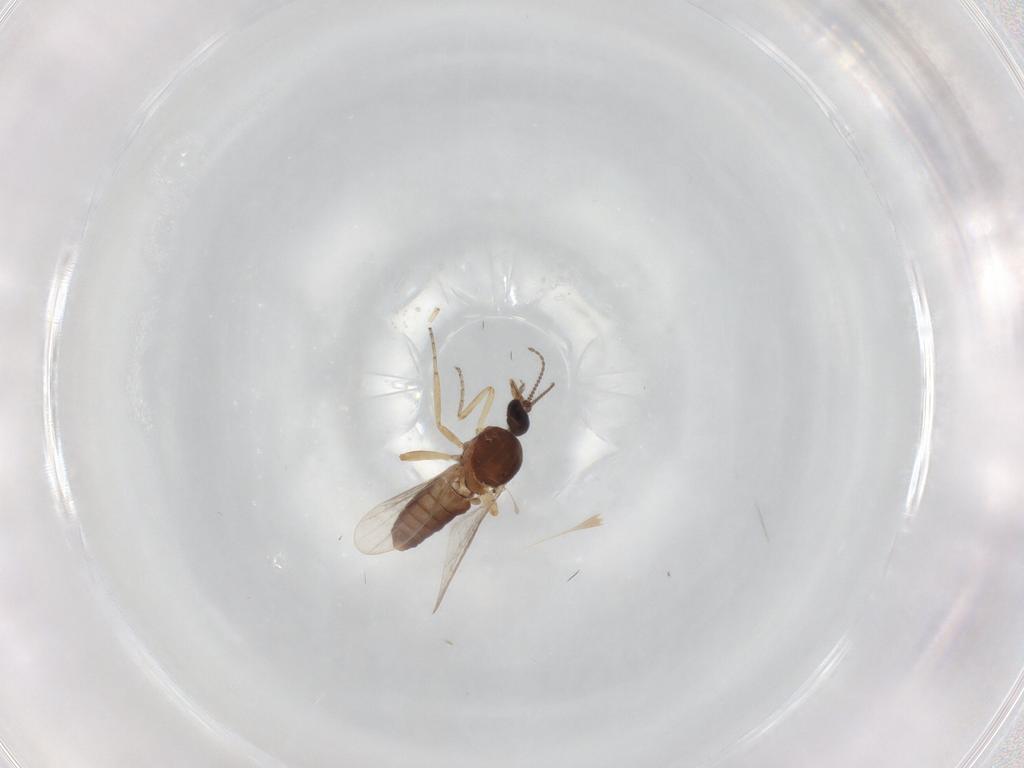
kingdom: Animalia
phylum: Arthropoda
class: Insecta
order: Diptera
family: Ceratopogonidae
